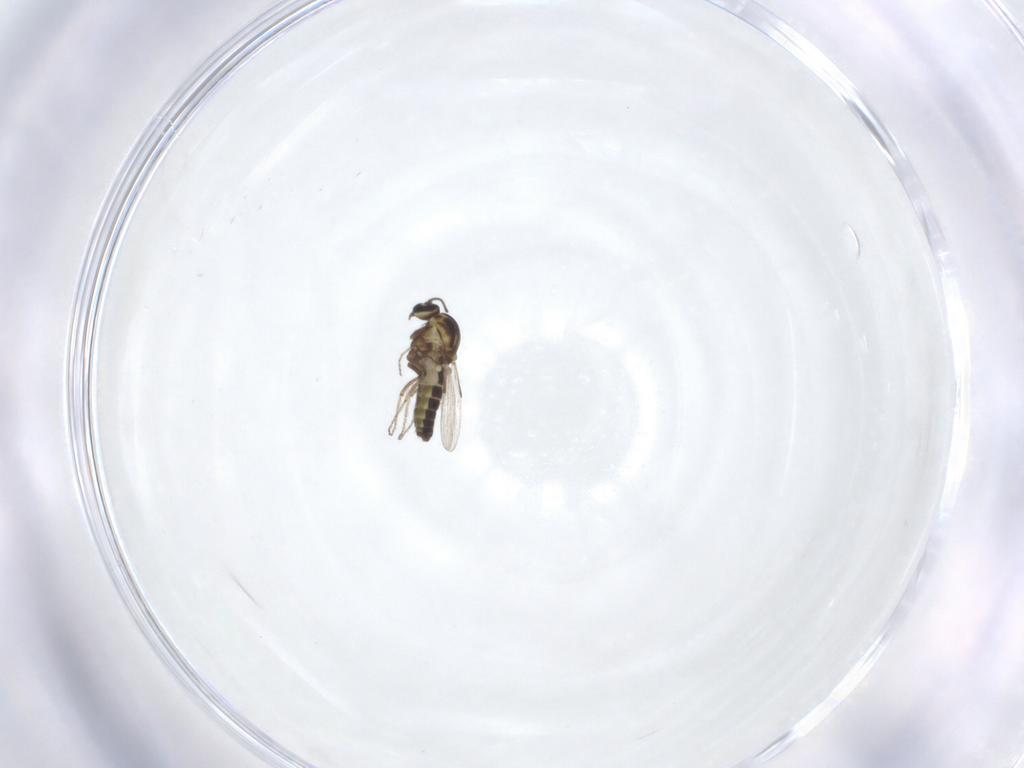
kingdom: Animalia
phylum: Arthropoda
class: Insecta
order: Diptera
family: Ceratopogonidae
